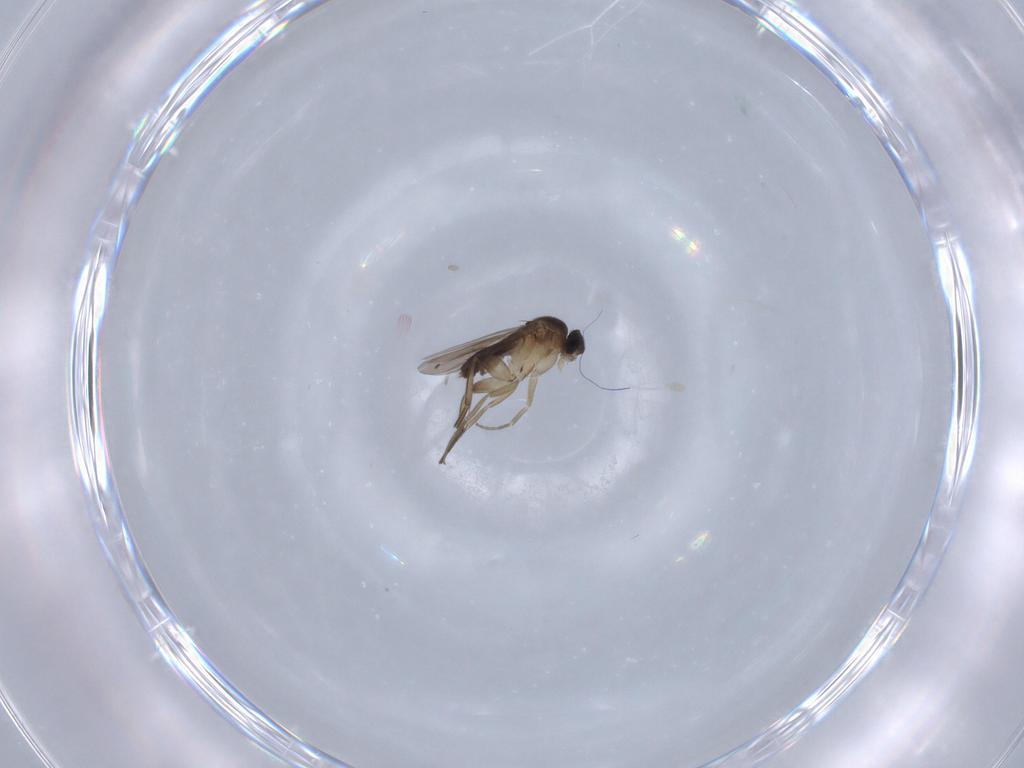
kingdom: Animalia
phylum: Arthropoda
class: Insecta
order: Diptera
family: Phoridae
